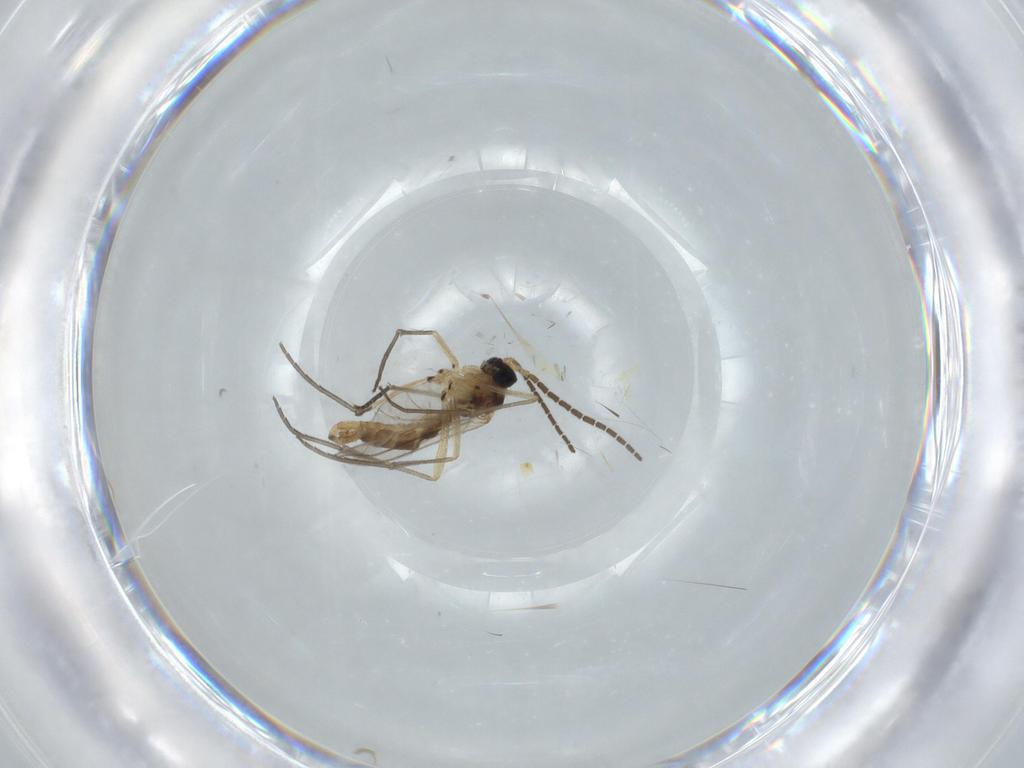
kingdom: Animalia
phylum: Arthropoda
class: Insecta
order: Diptera
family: Sciaridae
